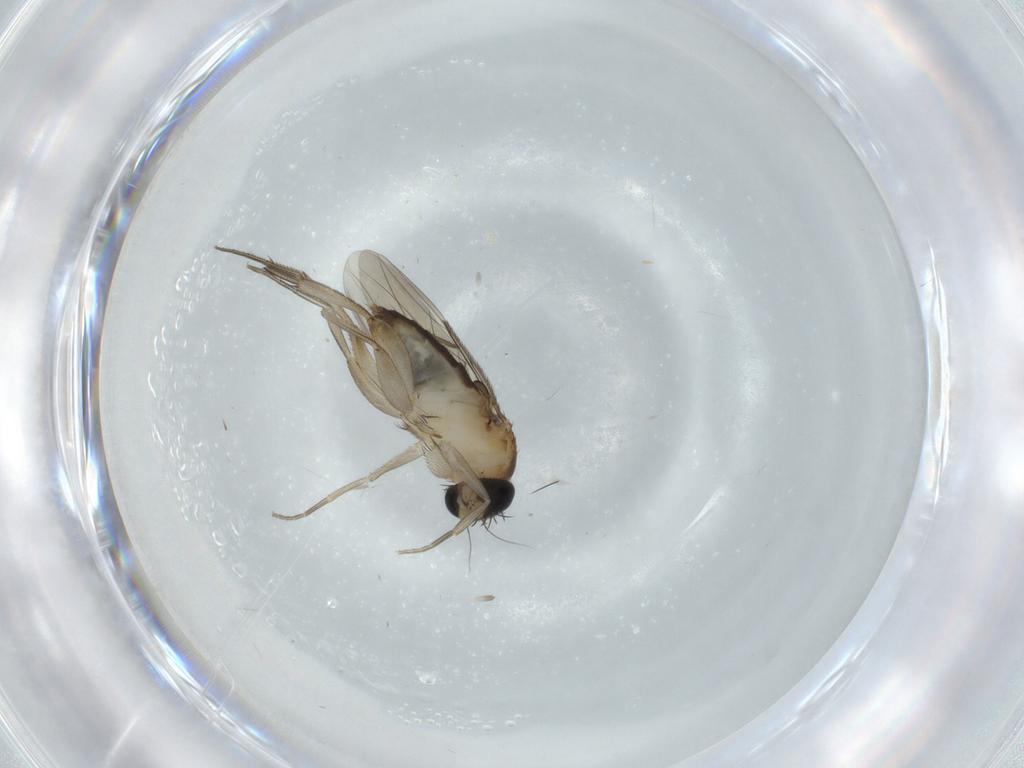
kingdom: Animalia
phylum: Arthropoda
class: Insecta
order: Diptera
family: Phoridae
